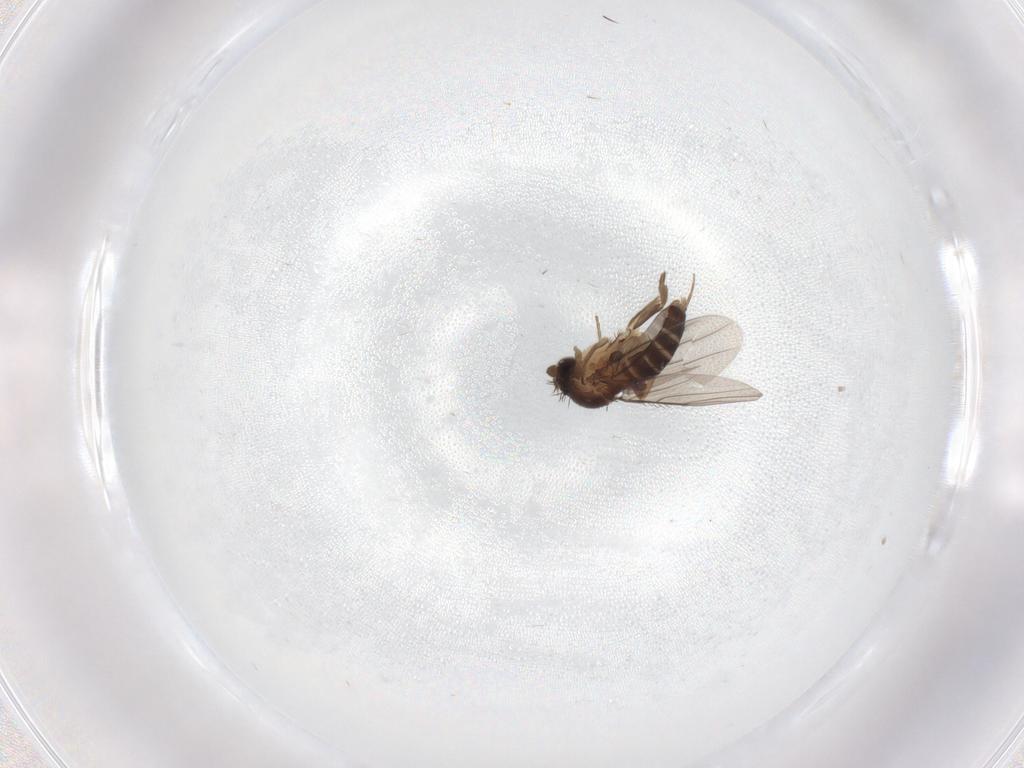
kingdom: Animalia
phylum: Arthropoda
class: Insecta
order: Diptera
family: Phoridae
